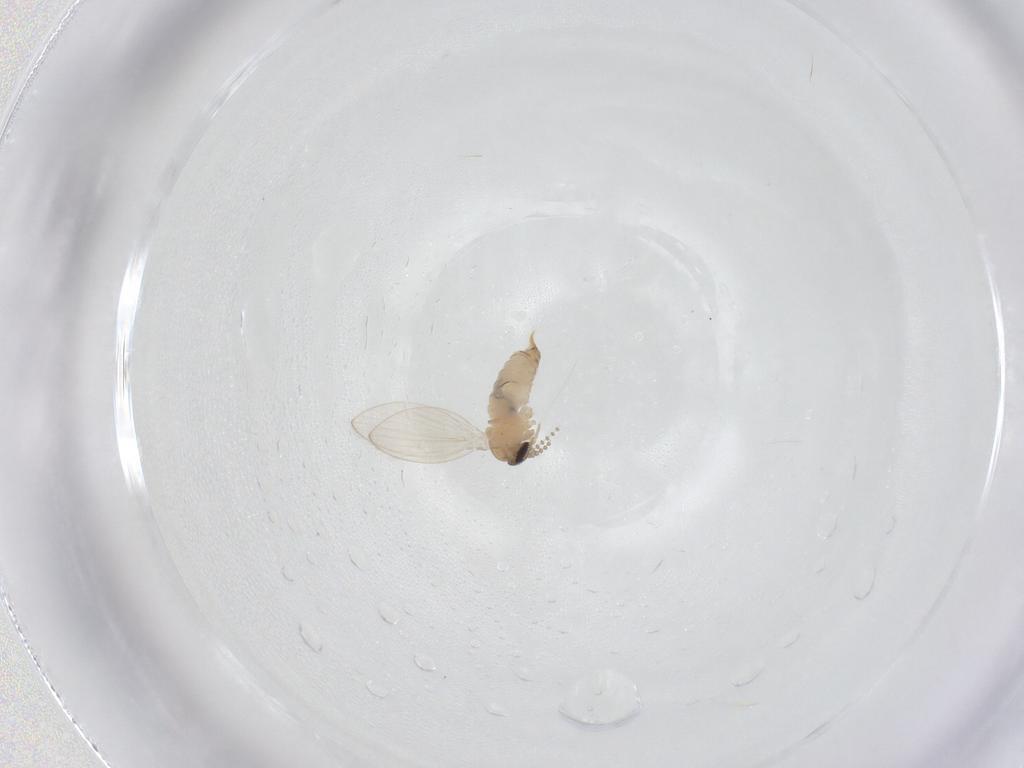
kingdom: Animalia
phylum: Arthropoda
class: Insecta
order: Diptera
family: Psychodidae
